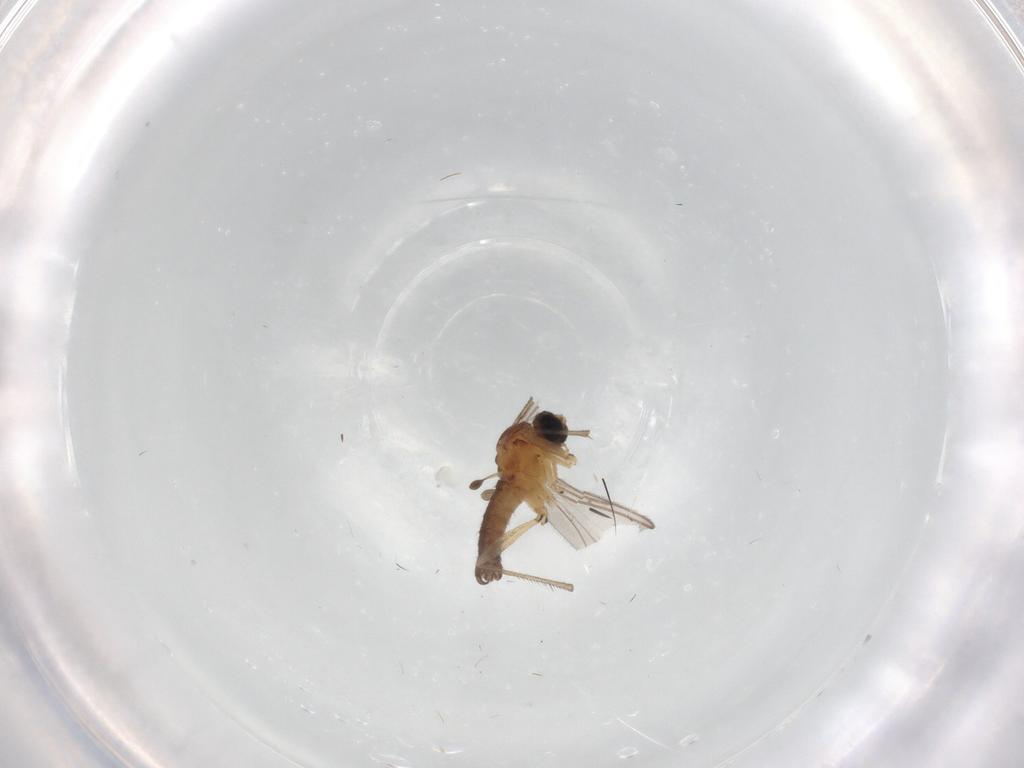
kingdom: Animalia
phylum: Arthropoda
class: Insecta
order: Diptera
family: Sciaridae
